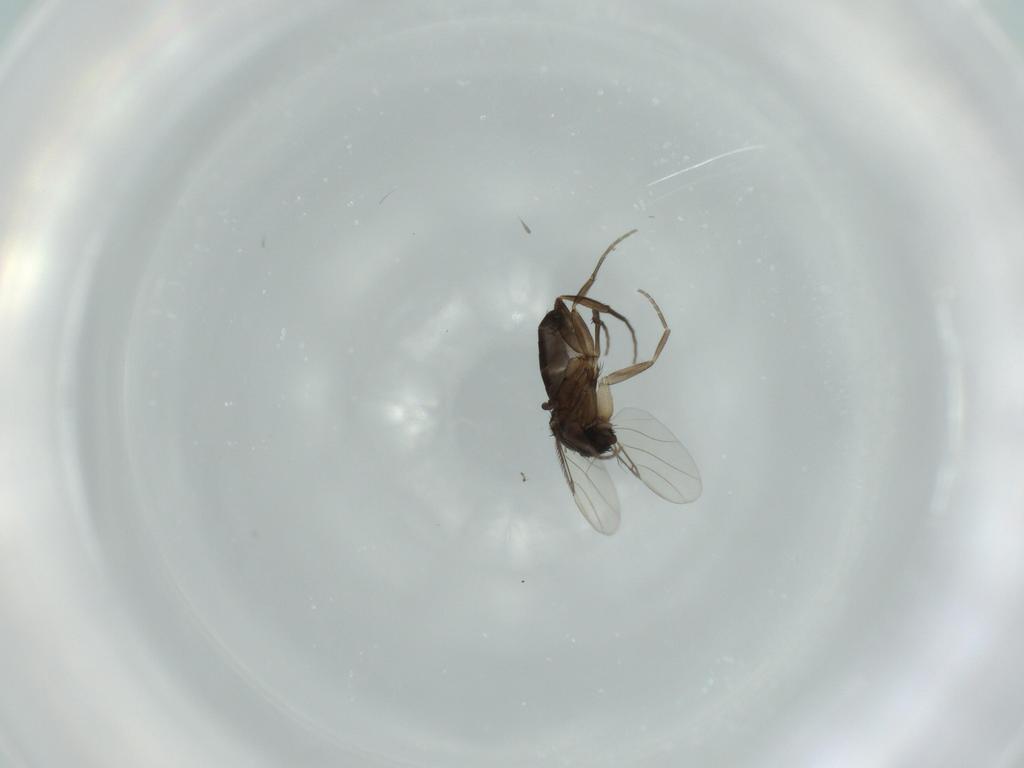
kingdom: Animalia
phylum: Arthropoda
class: Insecta
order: Diptera
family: Phoridae
